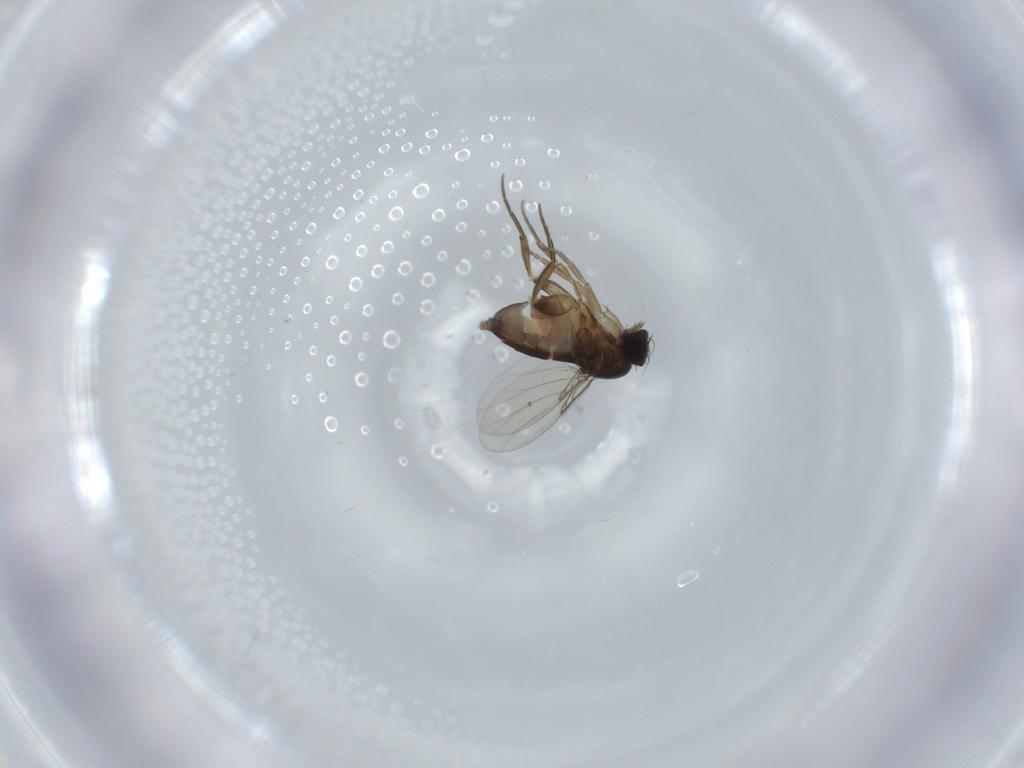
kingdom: Animalia
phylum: Arthropoda
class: Insecta
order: Diptera
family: Phoridae
